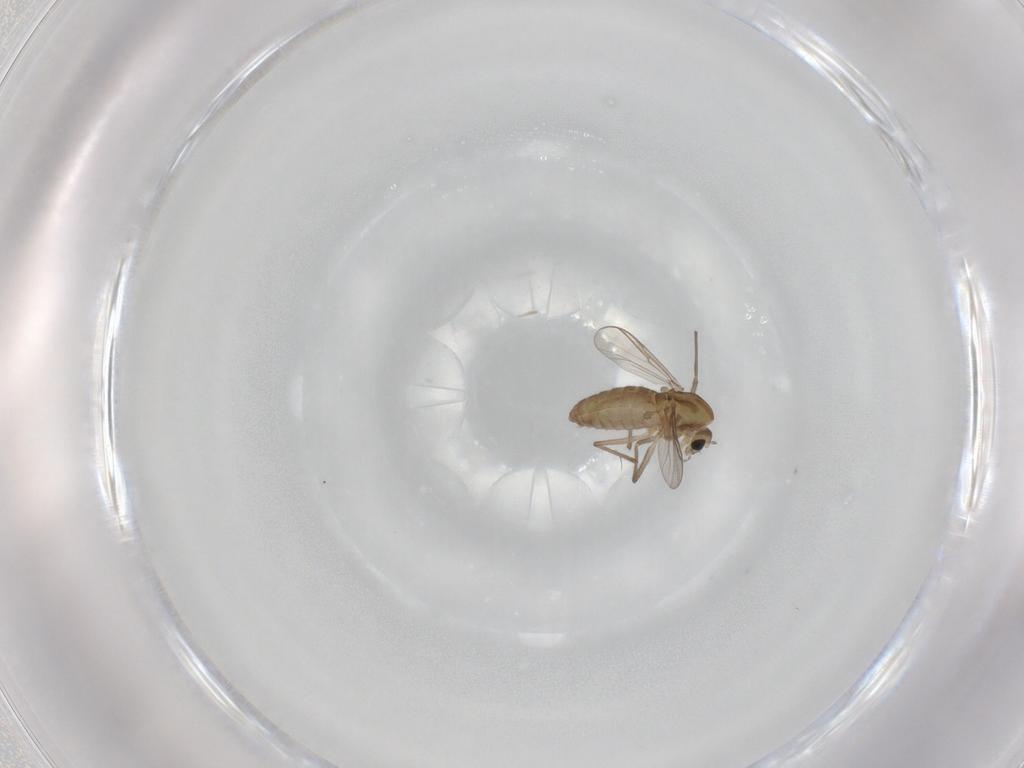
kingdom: Animalia
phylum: Arthropoda
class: Insecta
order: Diptera
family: Chironomidae
